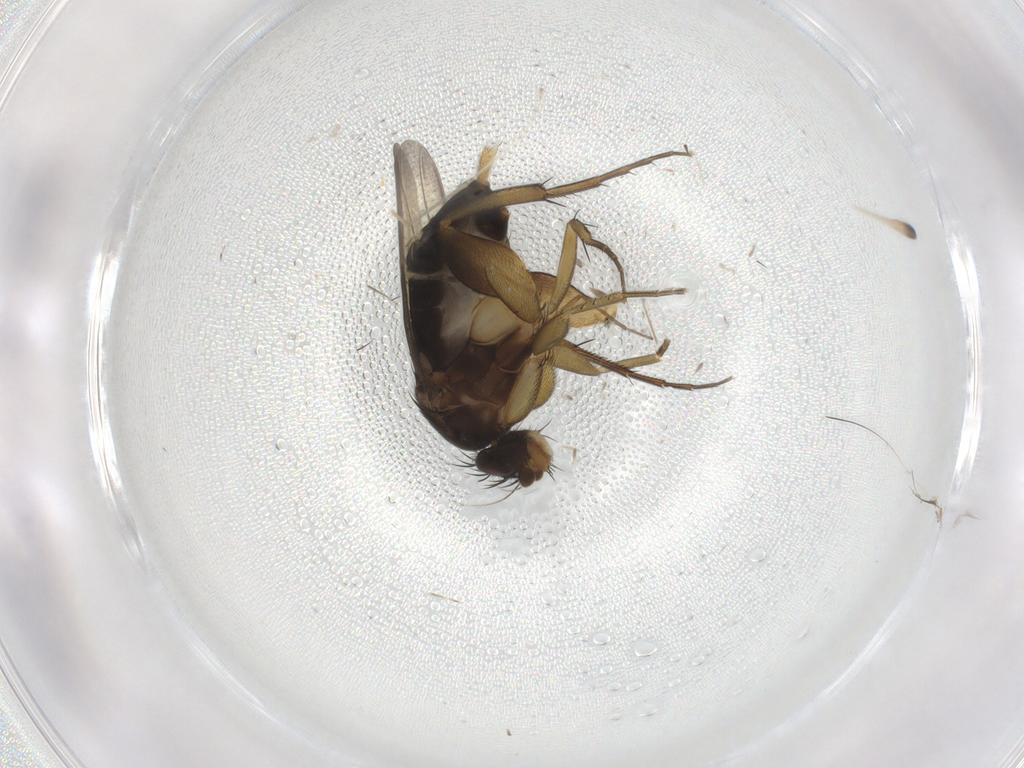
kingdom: Animalia
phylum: Arthropoda
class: Insecta
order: Diptera
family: Phoridae
